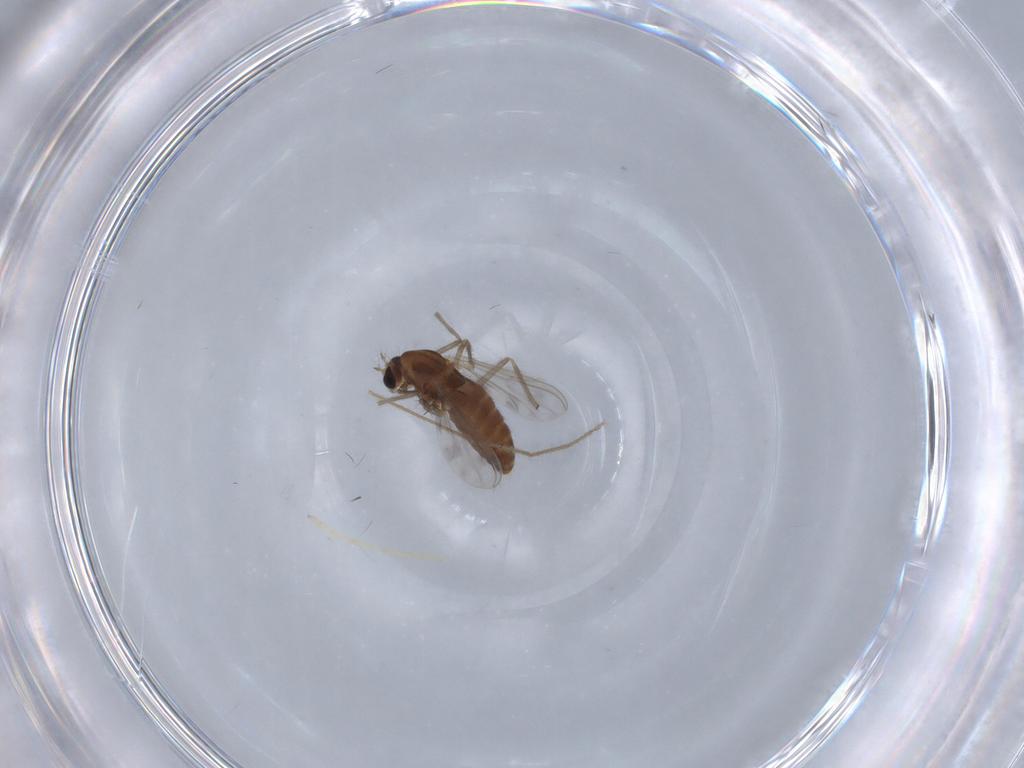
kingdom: Animalia
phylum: Arthropoda
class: Insecta
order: Diptera
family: Chironomidae
